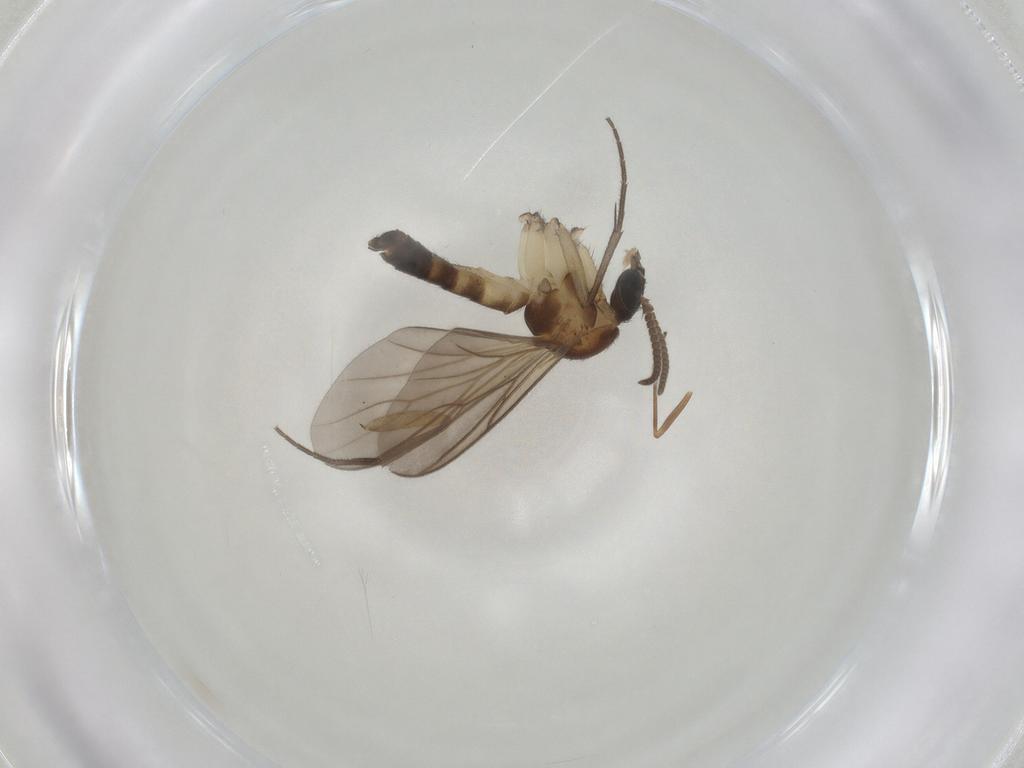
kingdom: Animalia
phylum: Arthropoda
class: Insecta
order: Diptera
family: Mycetophilidae
